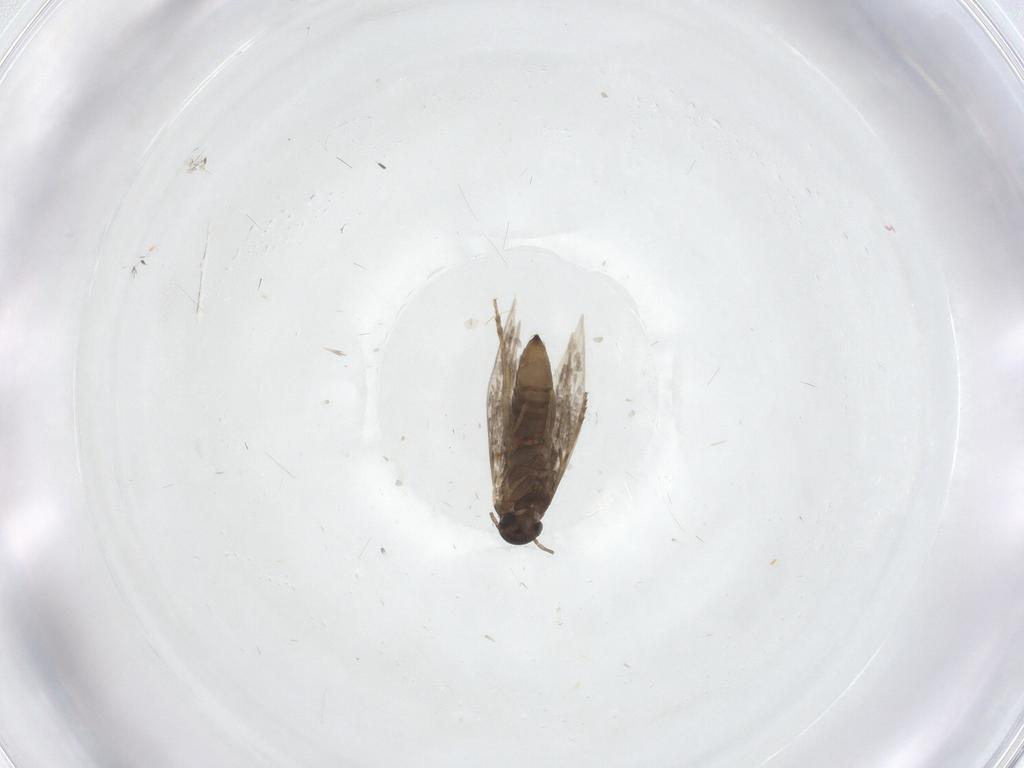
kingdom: Animalia
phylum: Arthropoda
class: Insecta
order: Lepidoptera
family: Heliozelidae
